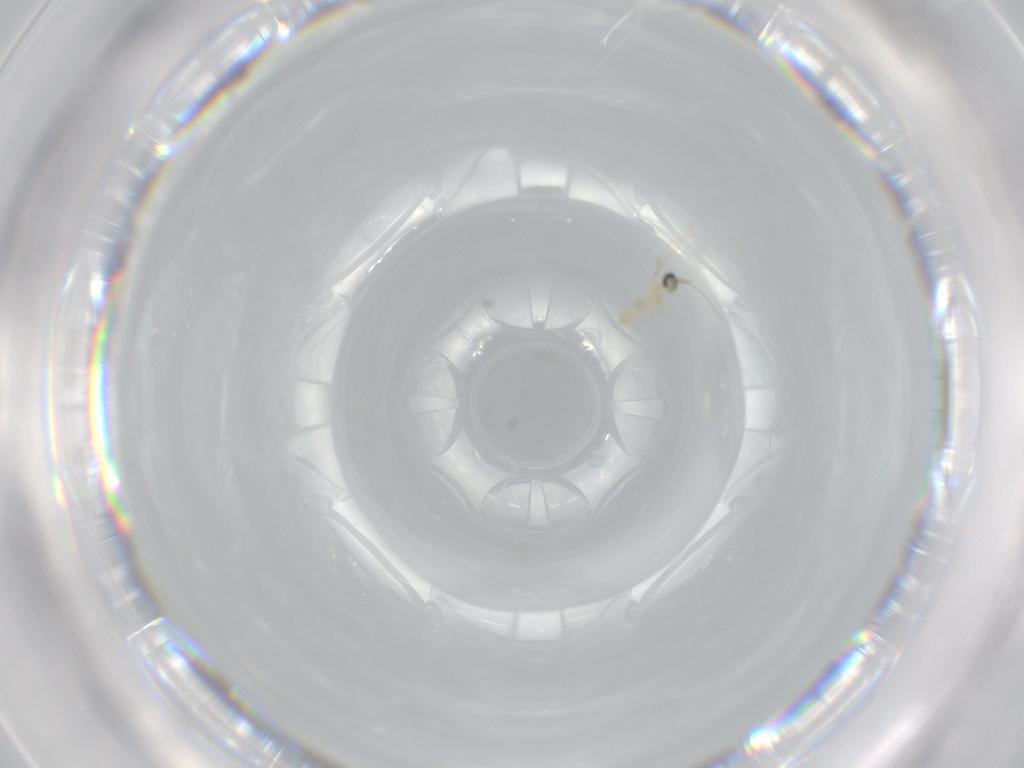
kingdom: Animalia
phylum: Arthropoda
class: Insecta
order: Diptera
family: Cecidomyiidae
